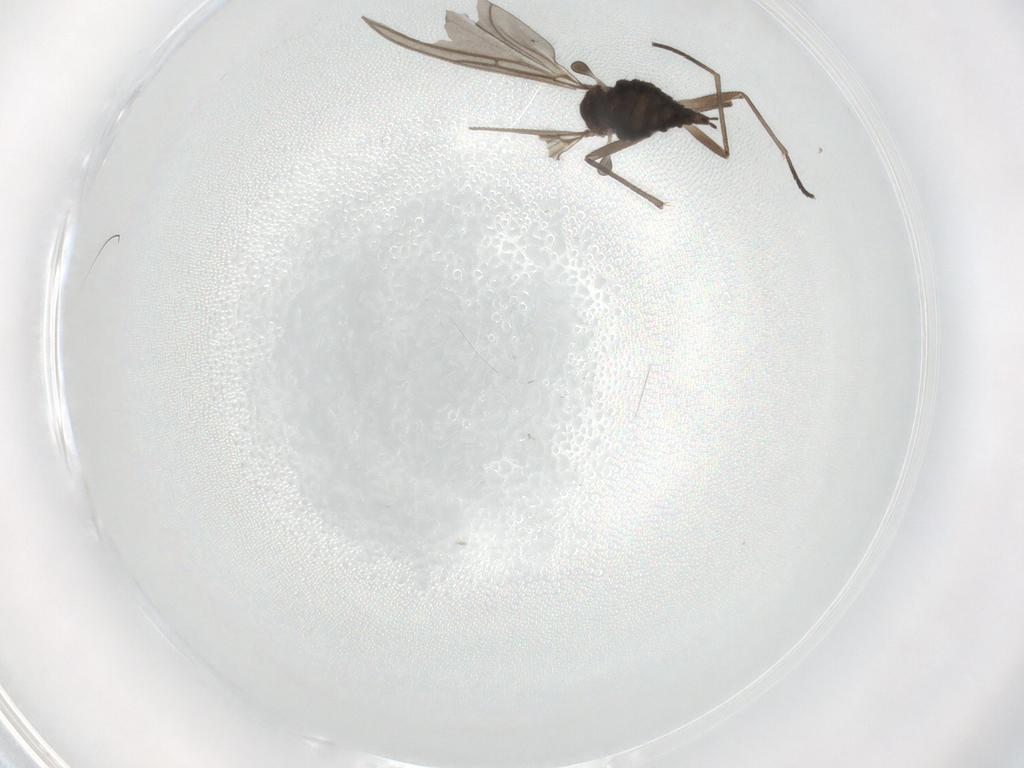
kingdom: Animalia
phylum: Arthropoda
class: Insecta
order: Diptera
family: Sciaridae
